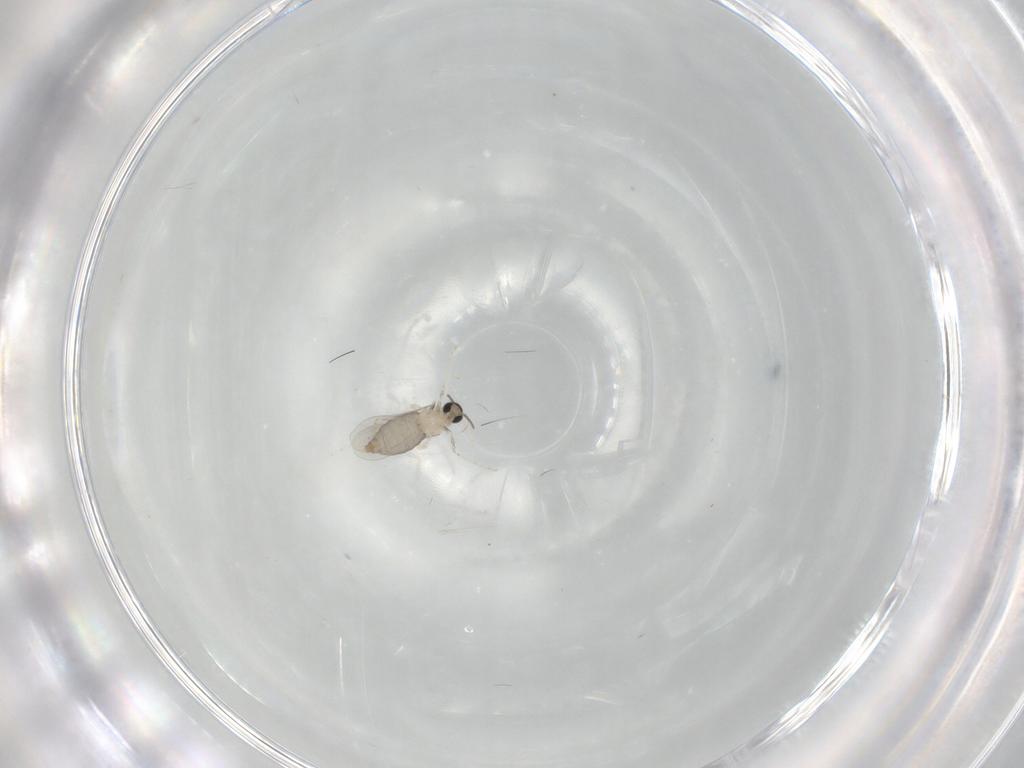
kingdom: Animalia
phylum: Arthropoda
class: Insecta
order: Diptera
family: Cecidomyiidae
